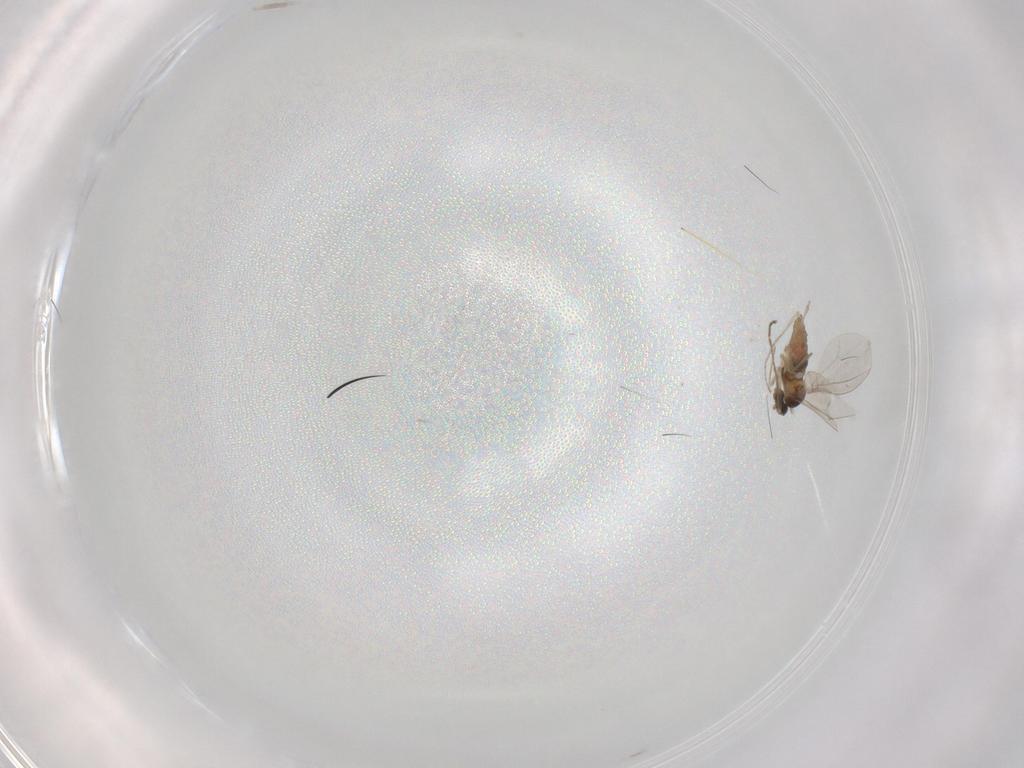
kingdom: Animalia
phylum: Arthropoda
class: Insecta
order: Diptera
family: Cecidomyiidae
